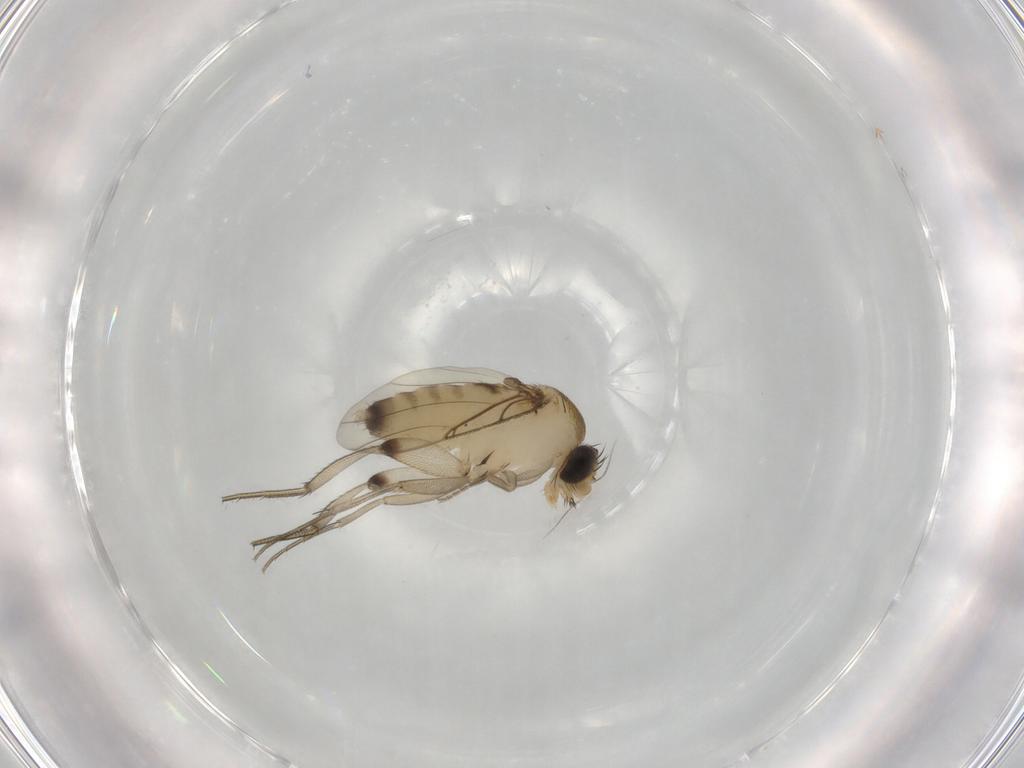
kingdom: Animalia
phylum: Arthropoda
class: Insecta
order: Diptera
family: Phoridae
